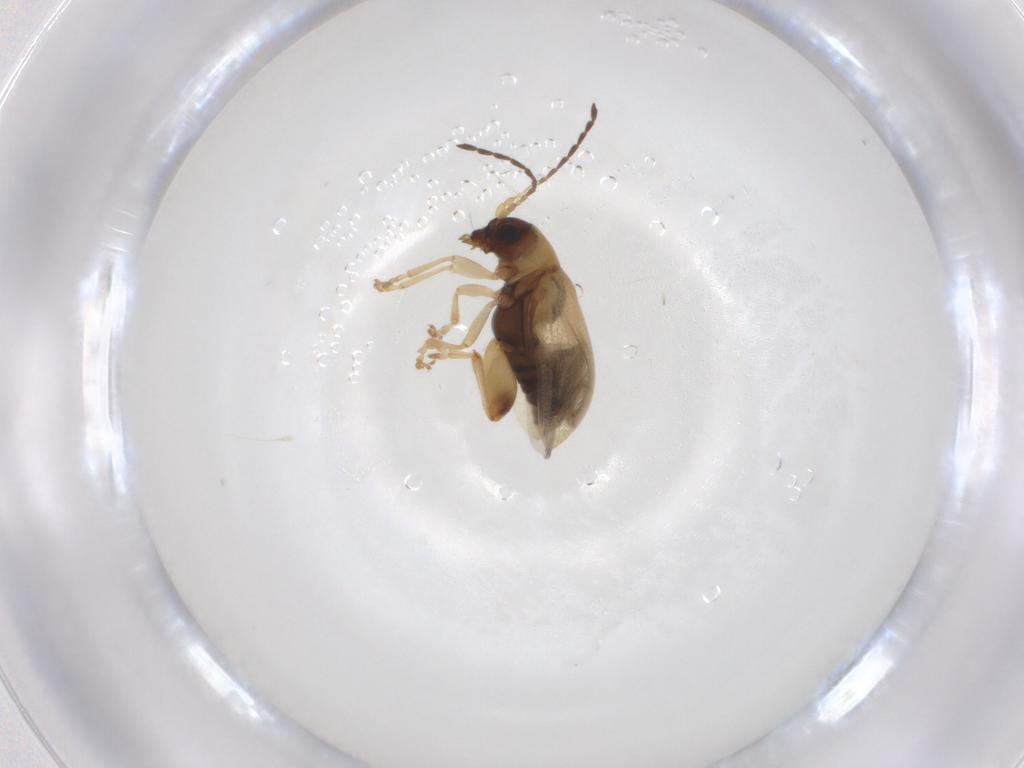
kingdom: Animalia
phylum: Arthropoda
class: Insecta
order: Coleoptera
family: Chrysomelidae
